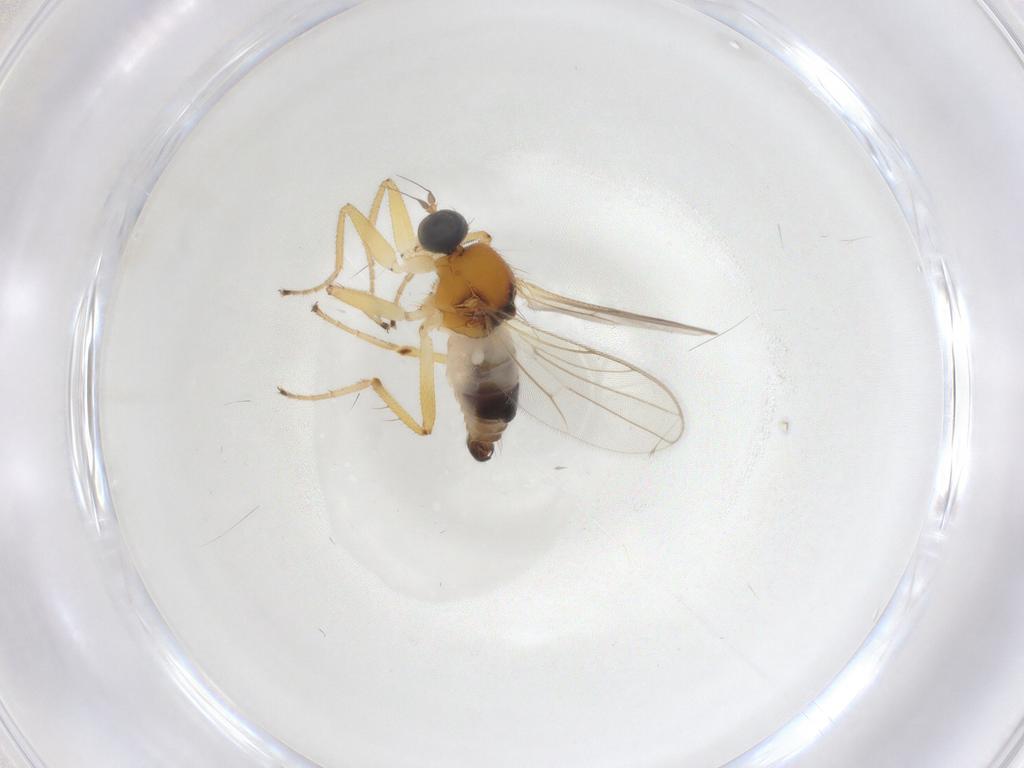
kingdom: Animalia
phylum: Arthropoda
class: Insecta
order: Diptera
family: Hybotidae
